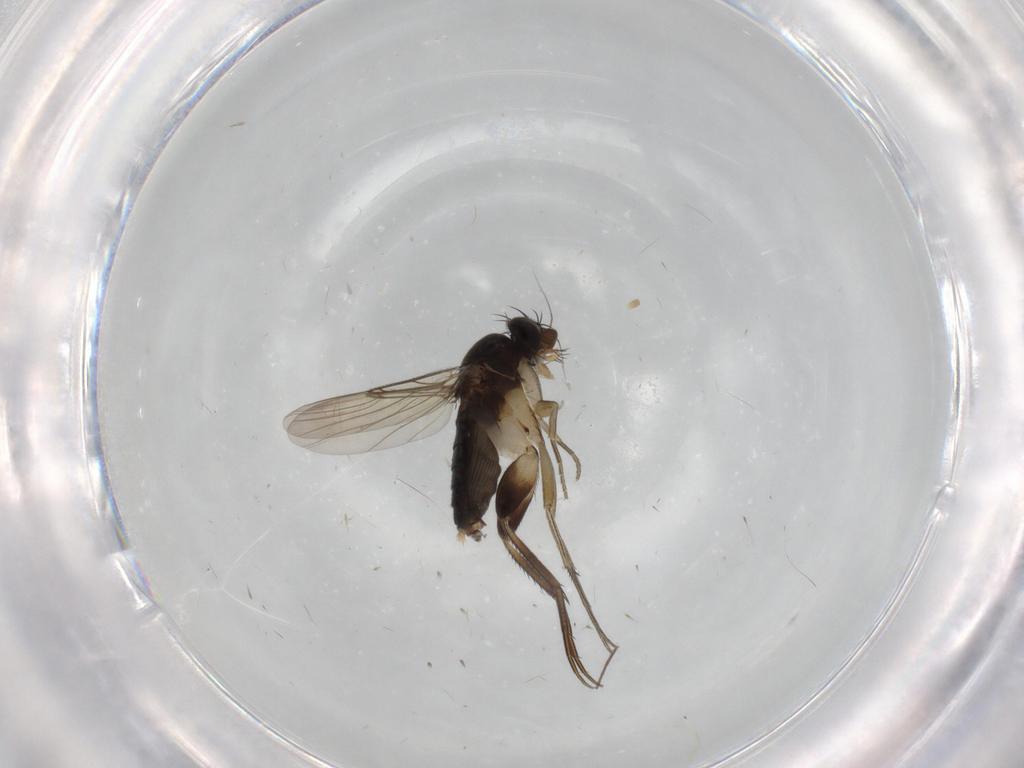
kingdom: Animalia
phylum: Arthropoda
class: Insecta
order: Diptera
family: Phoridae
